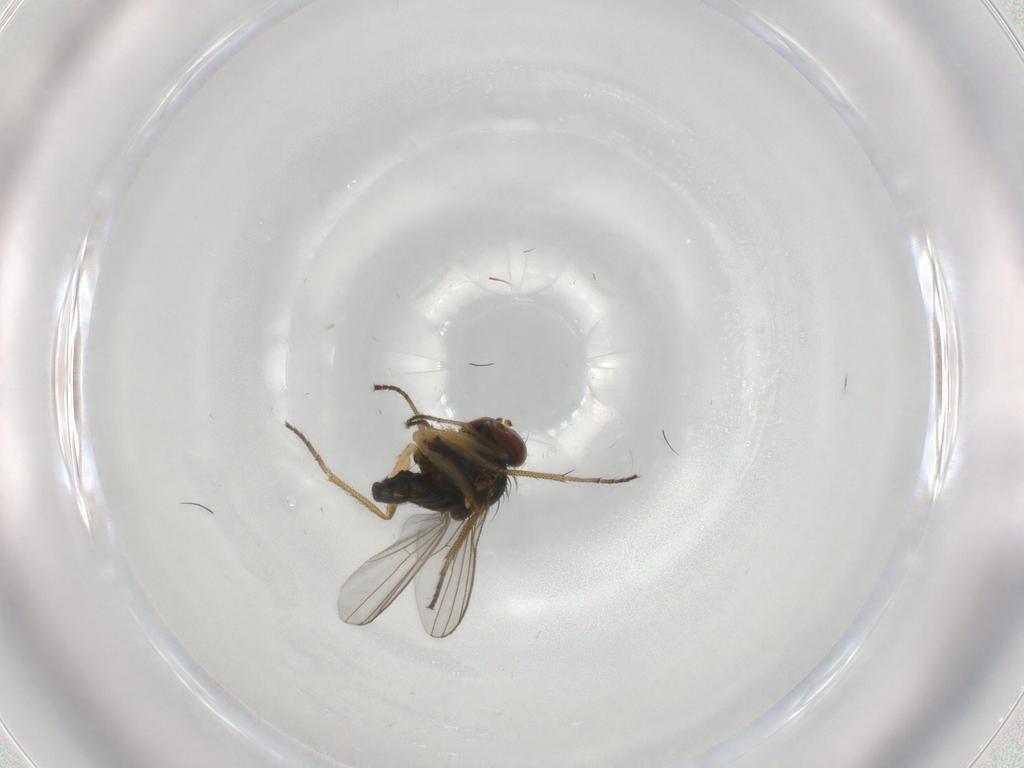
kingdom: Animalia
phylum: Arthropoda
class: Insecta
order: Diptera
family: Dolichopodidae
